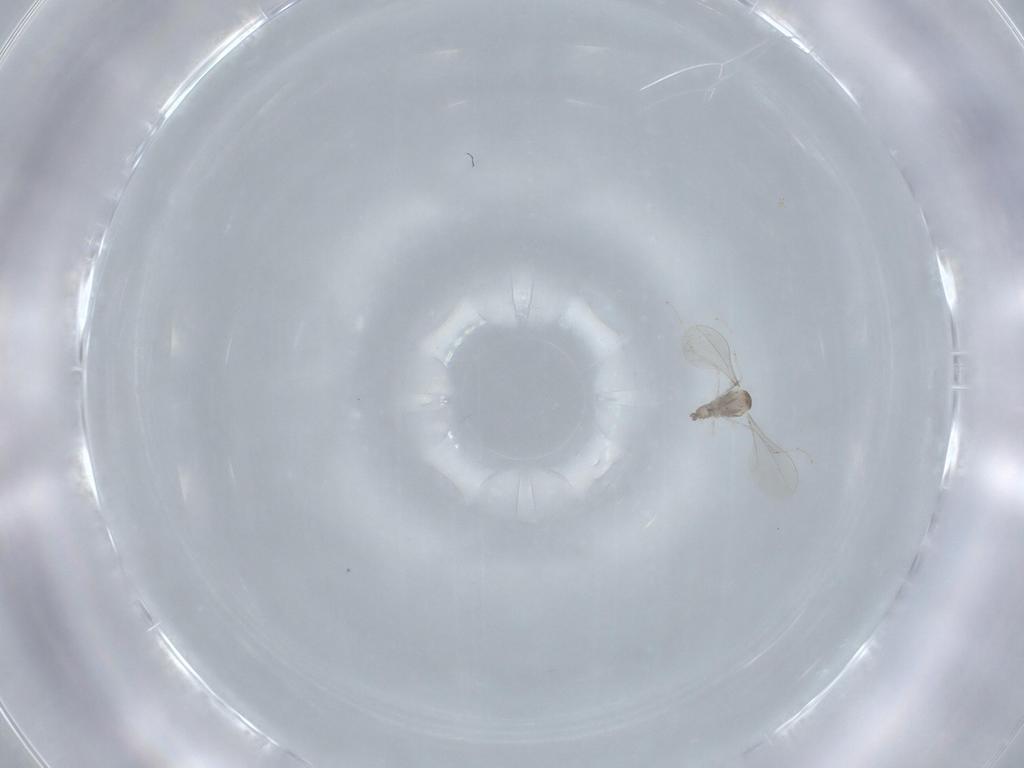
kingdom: Animalia
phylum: Arthropoda
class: Insecta
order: Diptera
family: Cecidomyiidae
